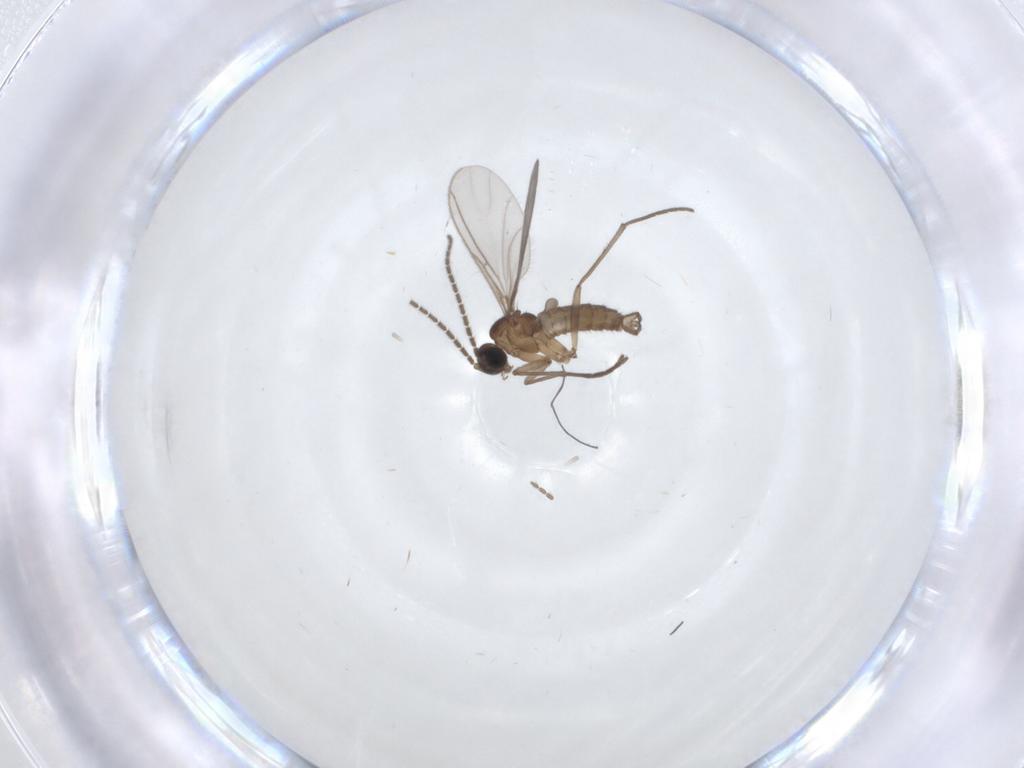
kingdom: Animalia
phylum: Arthropoda
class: Insecta
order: Diptera
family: Sciaridae
